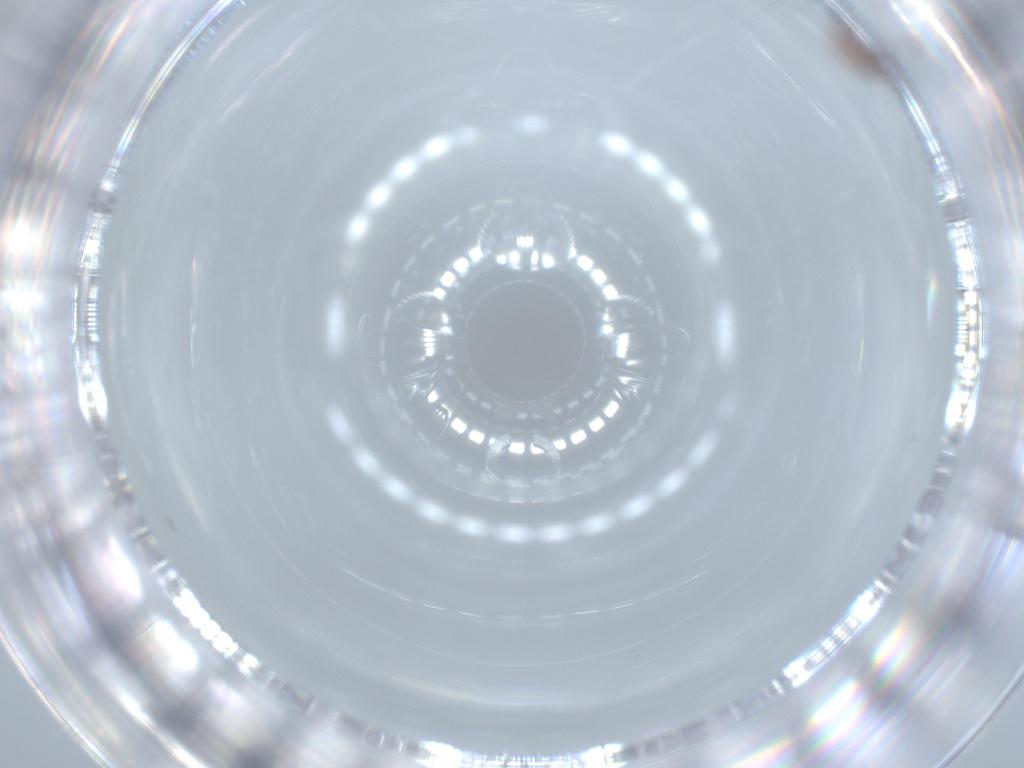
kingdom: Animalia
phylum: Arthropoda
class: Insecta
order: Thysanoptera
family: Phlaeothripidae
